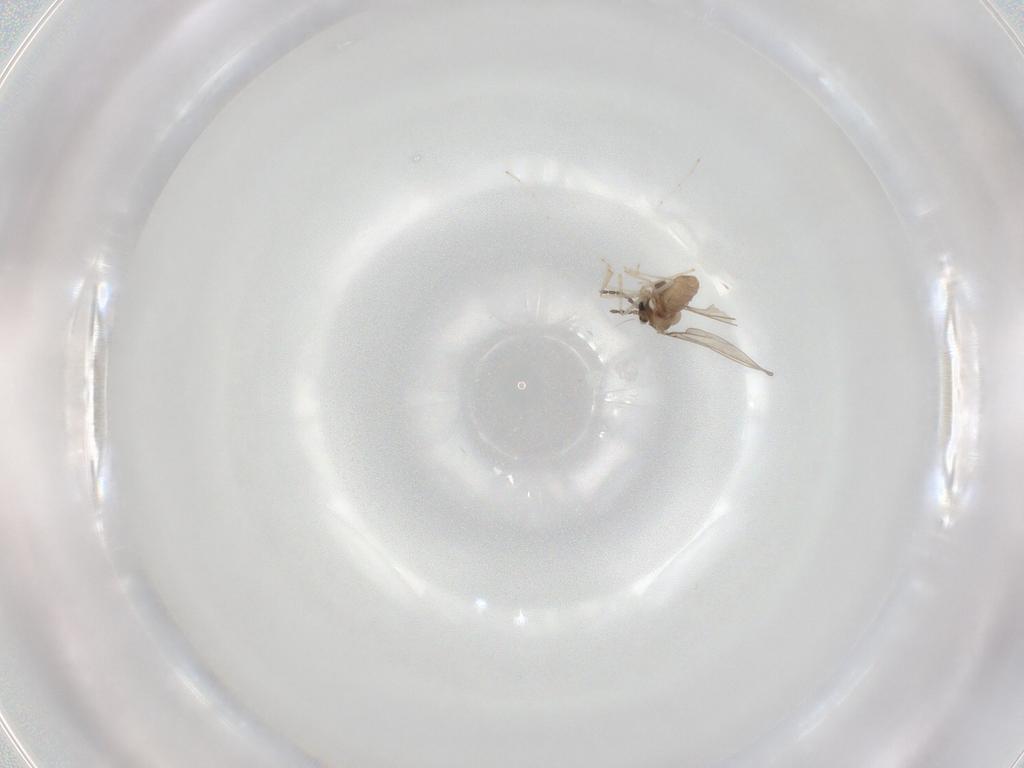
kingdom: Animalia
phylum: Arthropoda
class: Insecta
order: Diptera
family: Cecidomyiidae
